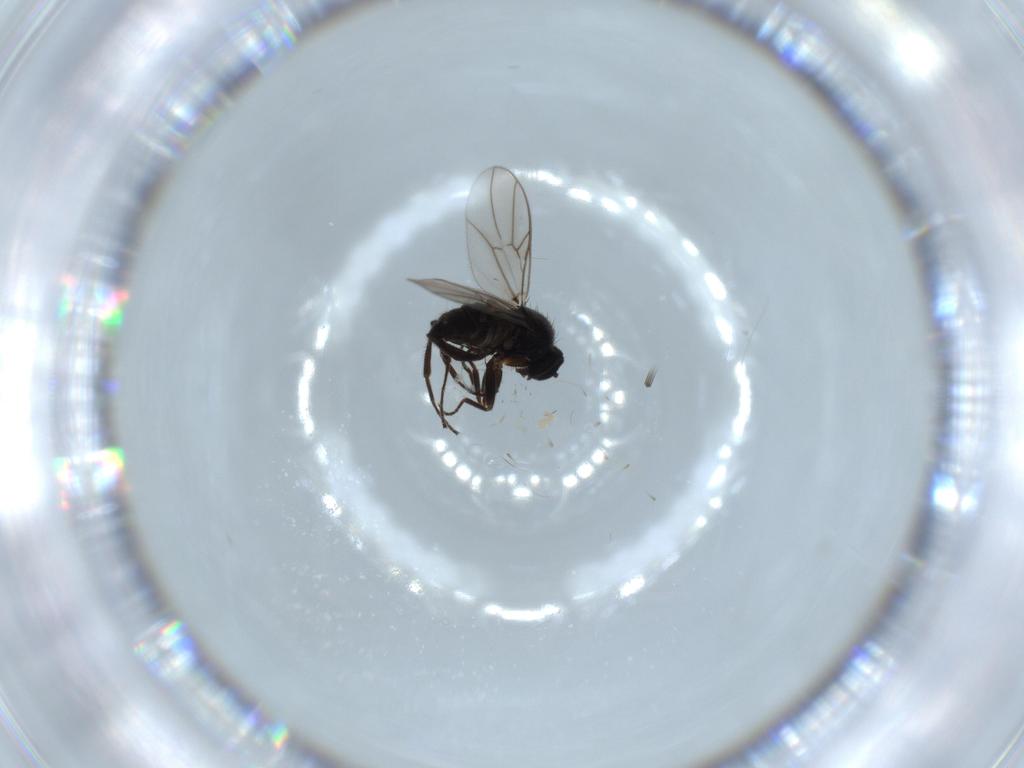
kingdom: Animalia
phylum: Arthropoda
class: Insecta
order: Diptera
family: Hybotidae
